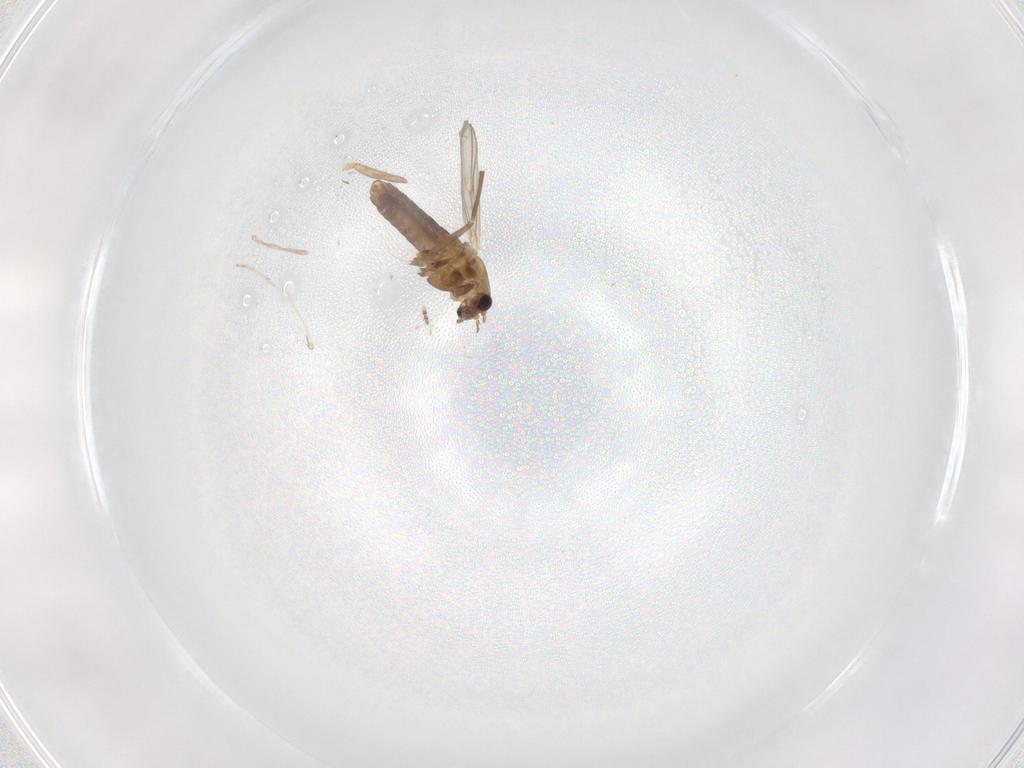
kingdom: Animalia
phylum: Arthropoda
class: Insecta
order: Diptera
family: Chironomidae
